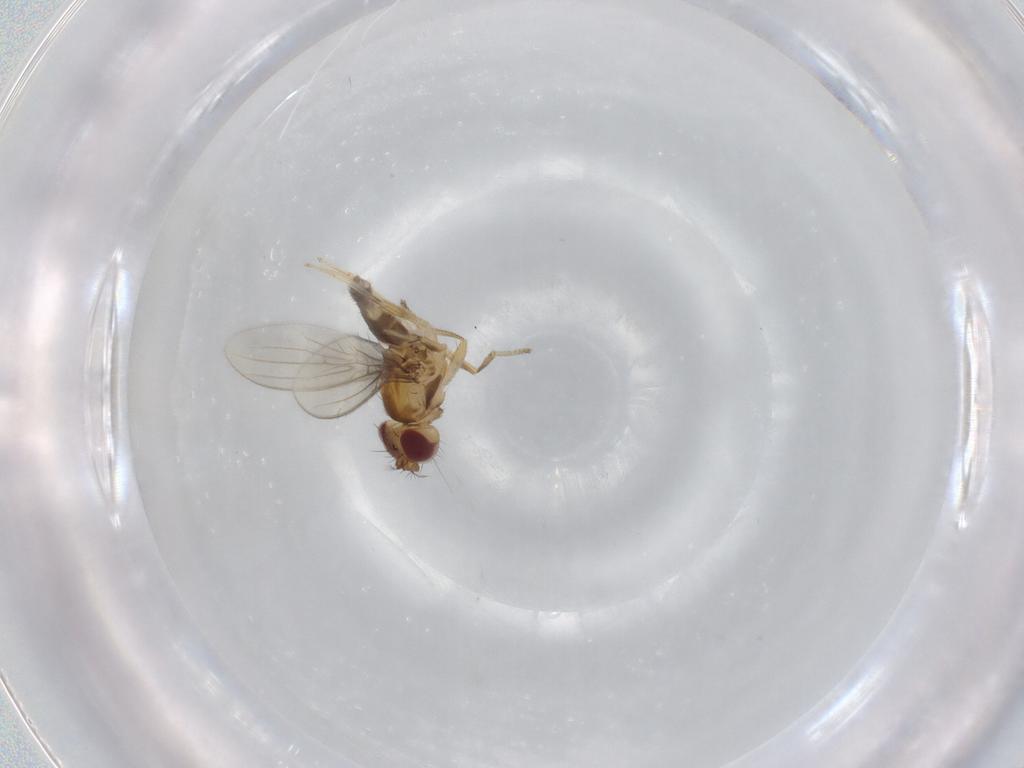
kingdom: Animalia
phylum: Arthropoda
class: Insecta
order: Diptera
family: Periscelididae
